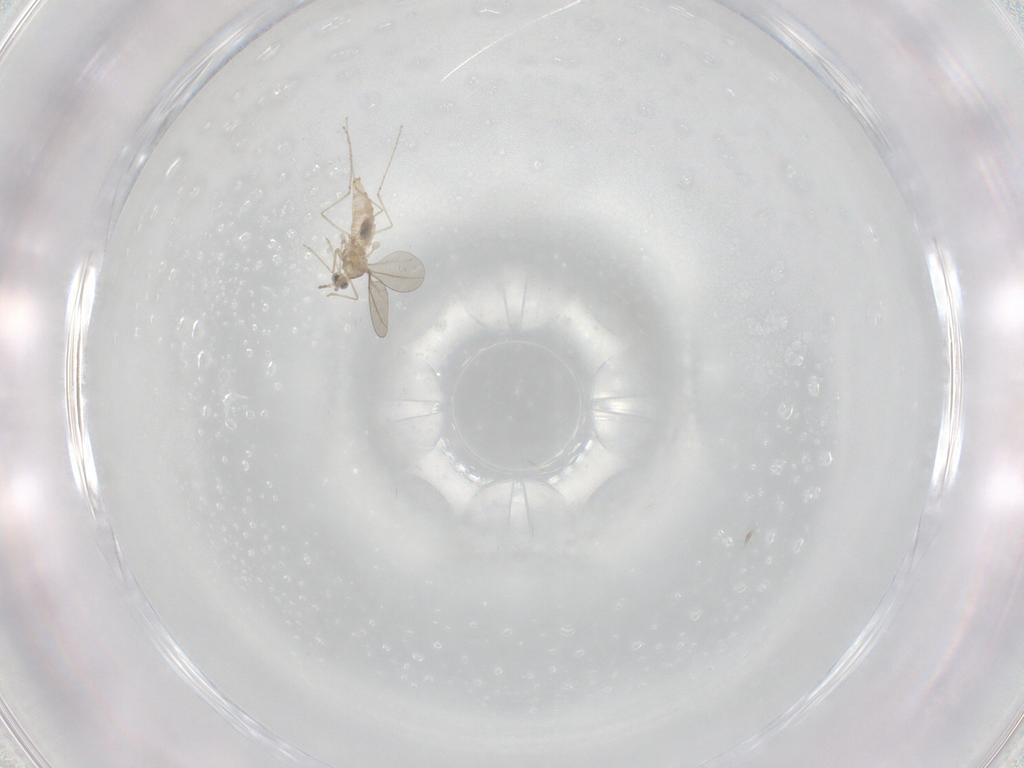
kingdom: Animalia
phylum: Arthropoda
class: Insecta
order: Diptera
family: Cecidomyiidae
